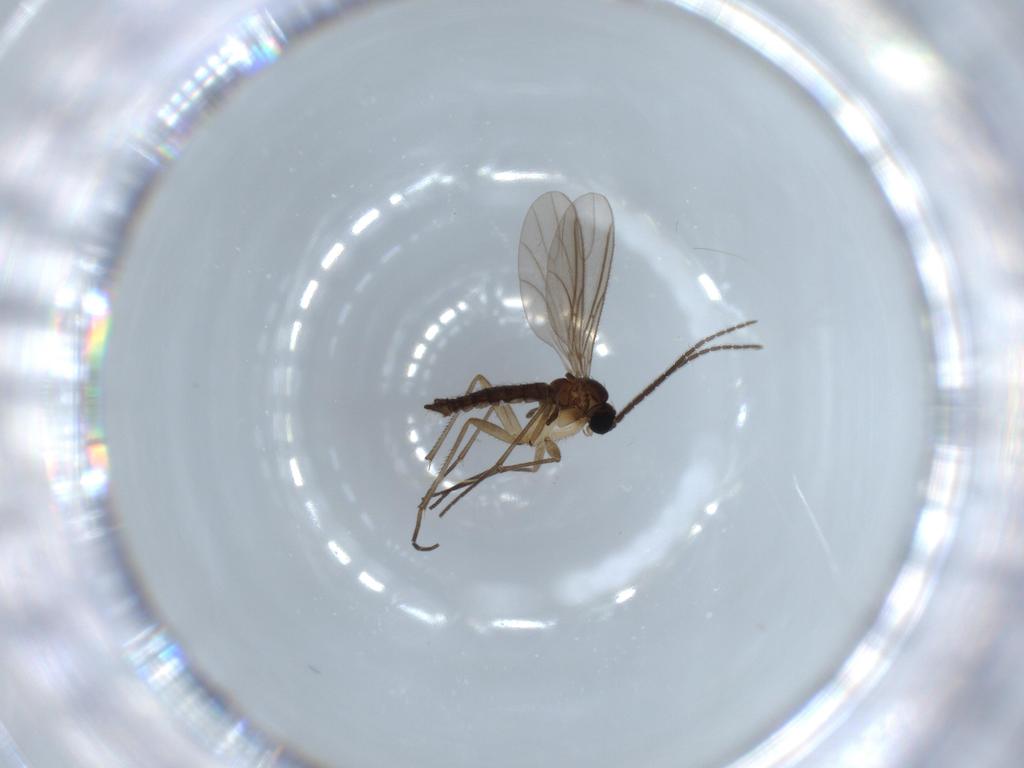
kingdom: Animalia
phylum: Arthropoda
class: Insecta
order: Diptera
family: Sciaridae
